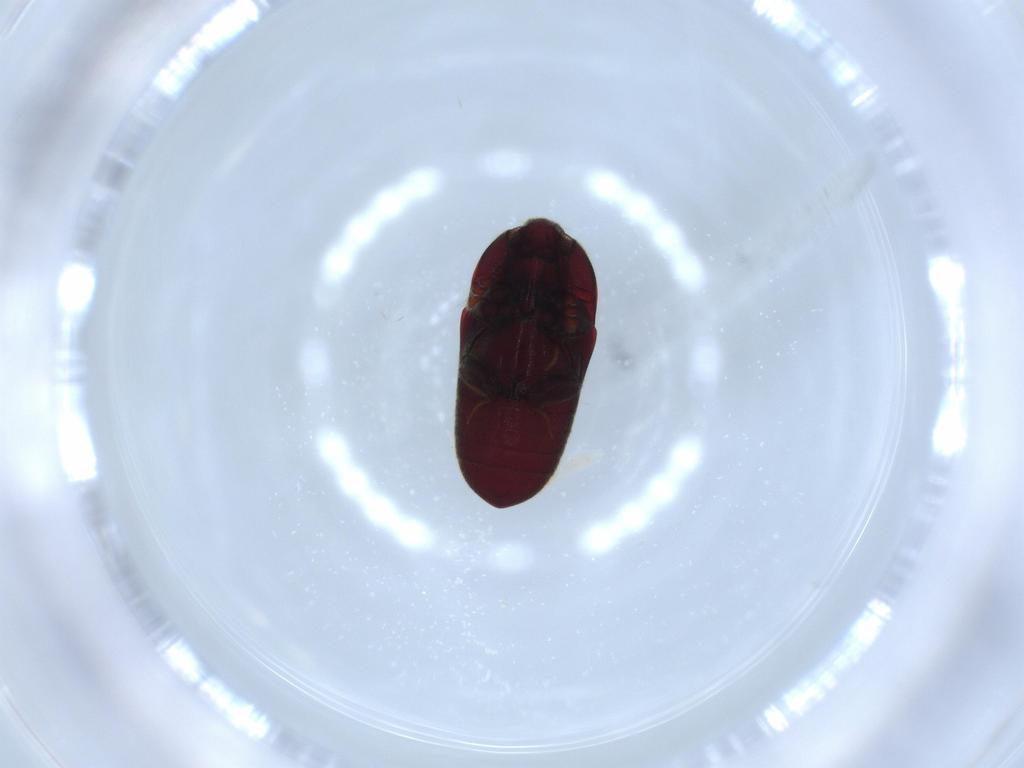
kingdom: Animalia
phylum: Arthropoda
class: Insecta
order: Coleoptera
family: Throscidae
